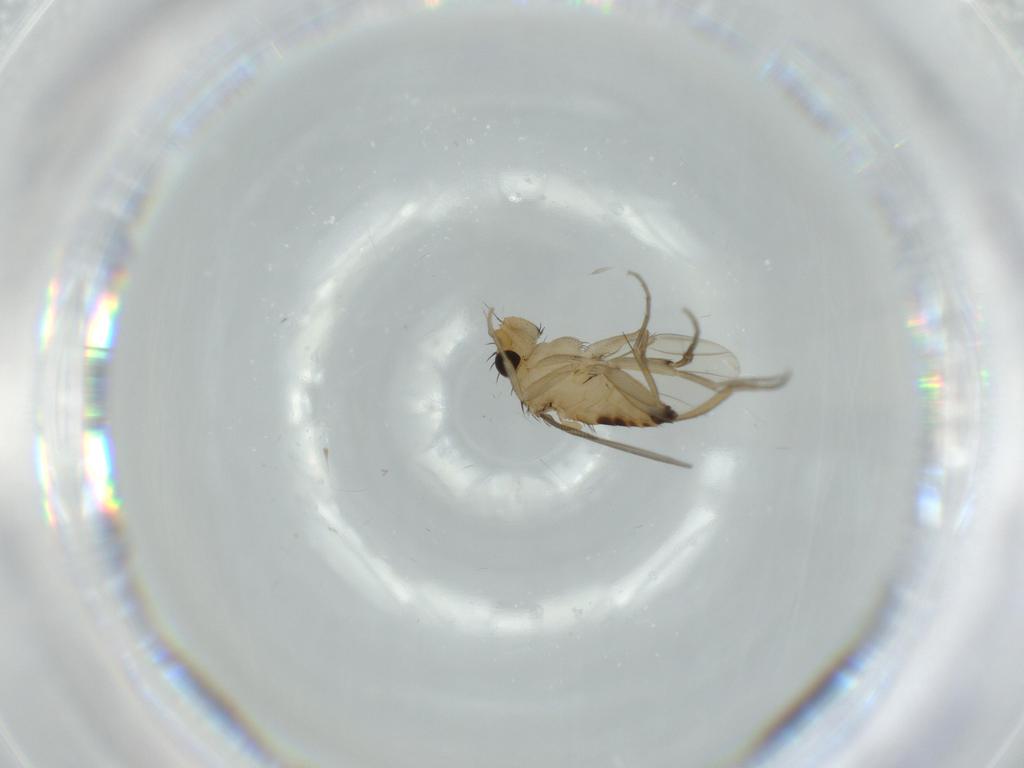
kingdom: Animalia
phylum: Arthropoda
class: Insecta
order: Diptera
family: Phoridae
